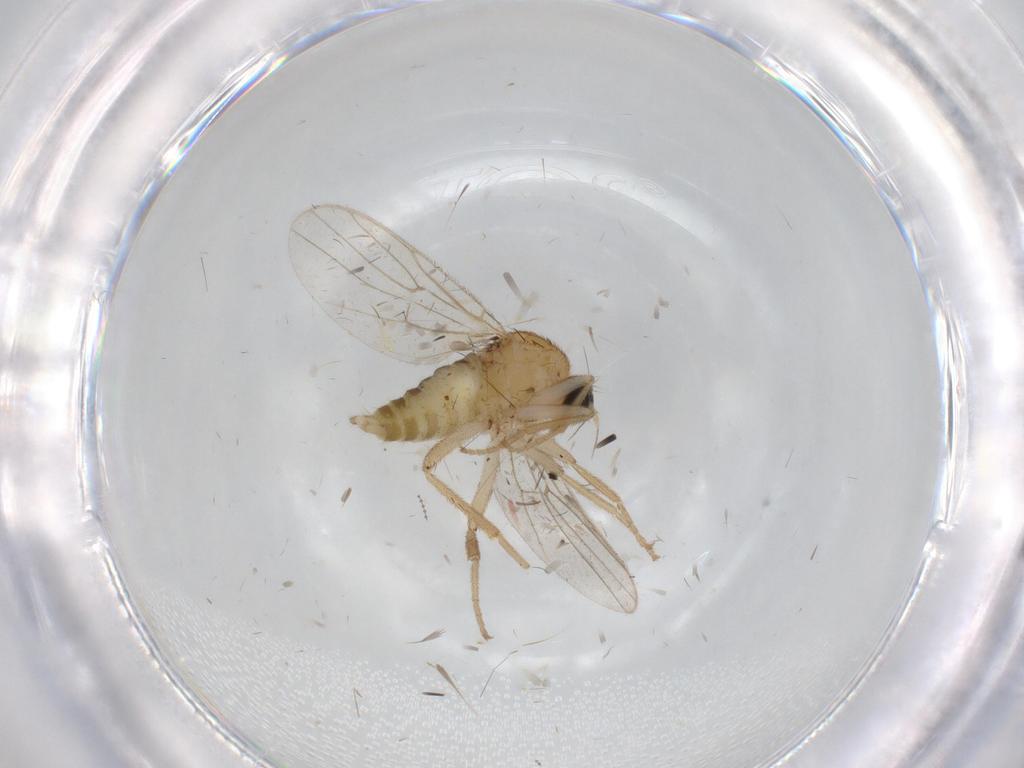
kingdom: Animalia
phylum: Arthropoda
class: Insecta
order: Diptera
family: Hybotidae
